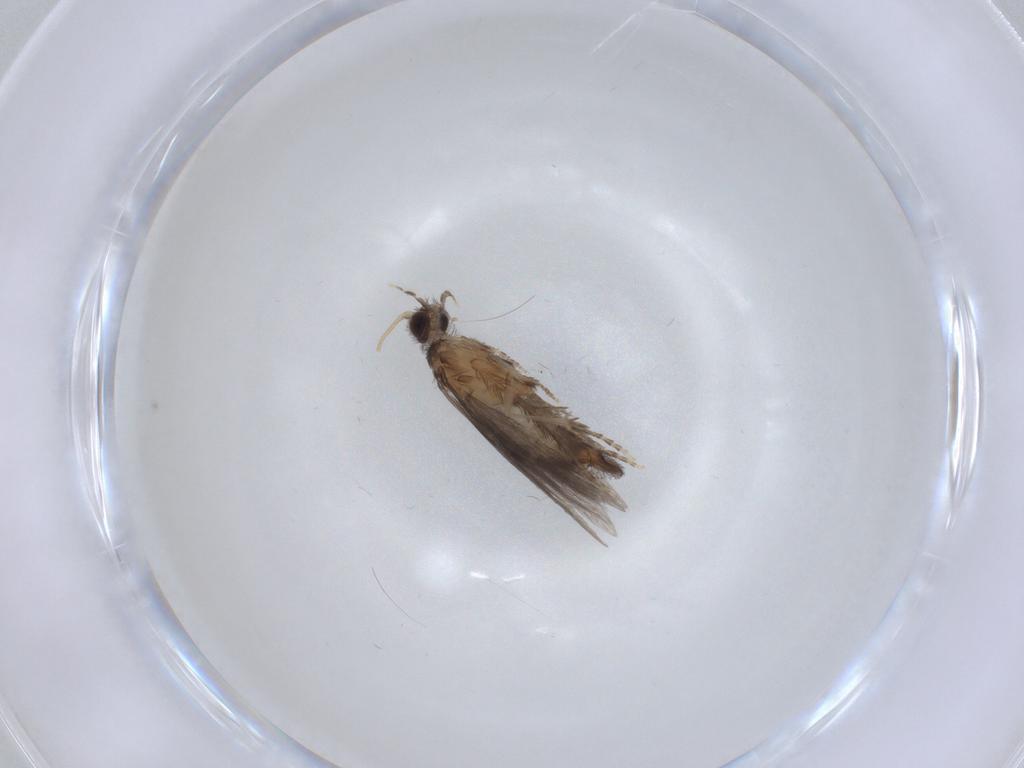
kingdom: Animalia
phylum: Arthropoda
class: Insecta
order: Trichoptera
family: Hydroptilidae
